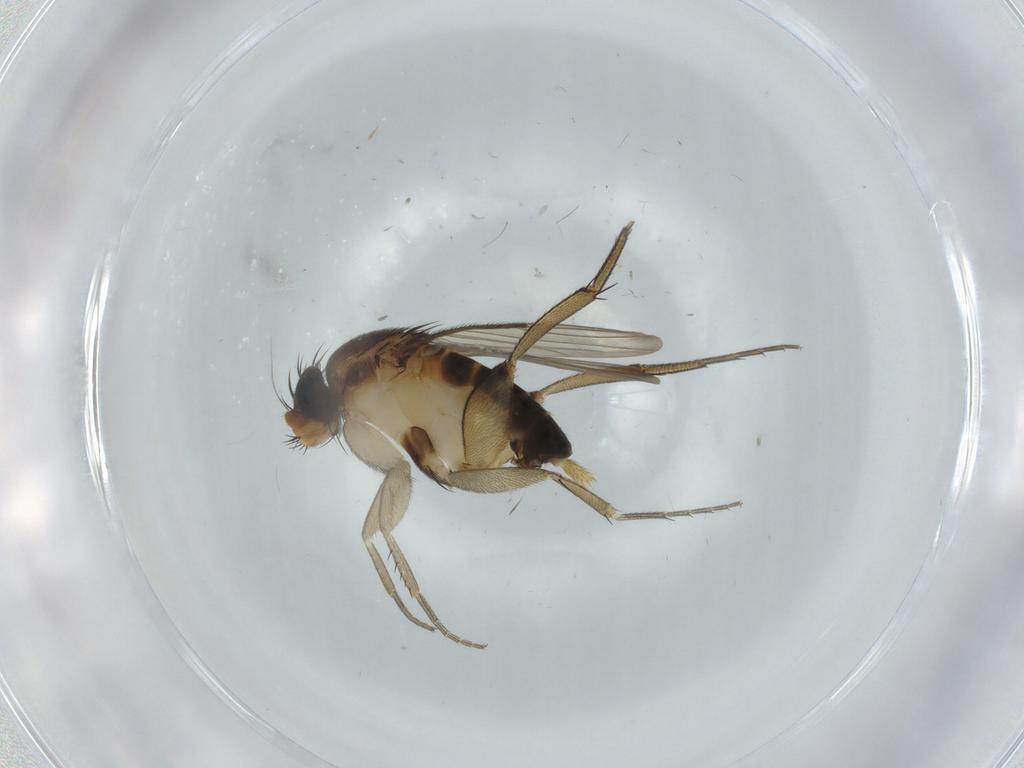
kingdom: Animalia
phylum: Arthropoda
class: Insecta
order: Diptera
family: Phoridae
